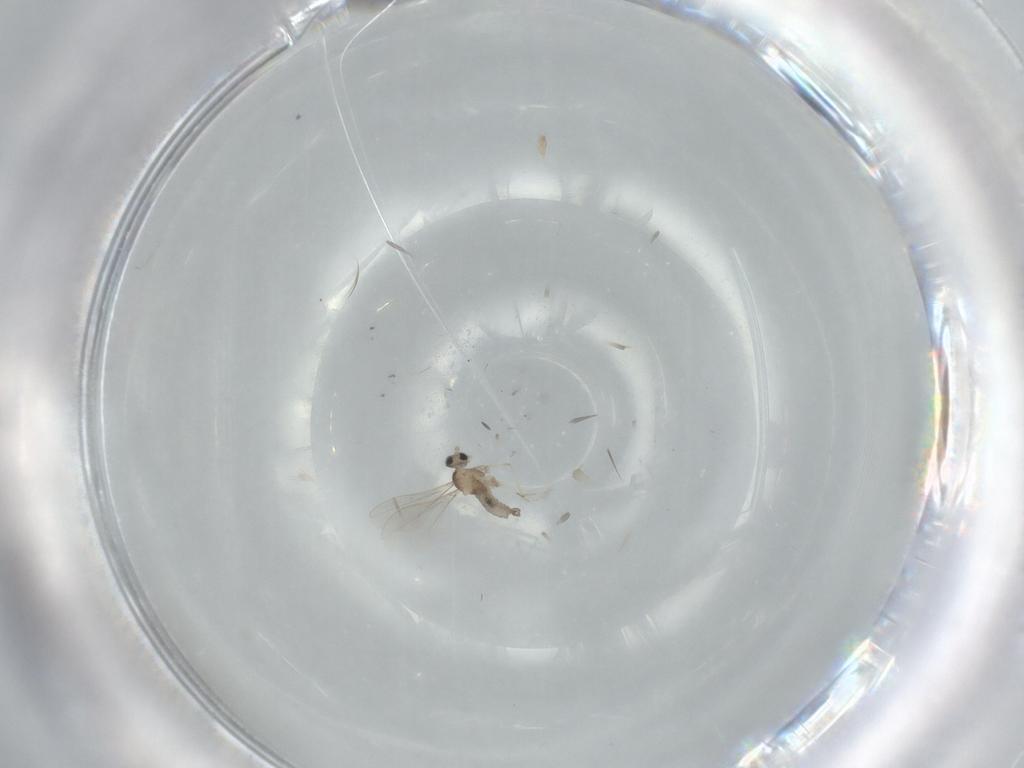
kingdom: Animalia
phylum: Arthropoda
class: Insecta
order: Diptera
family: Cecidomyiidae
